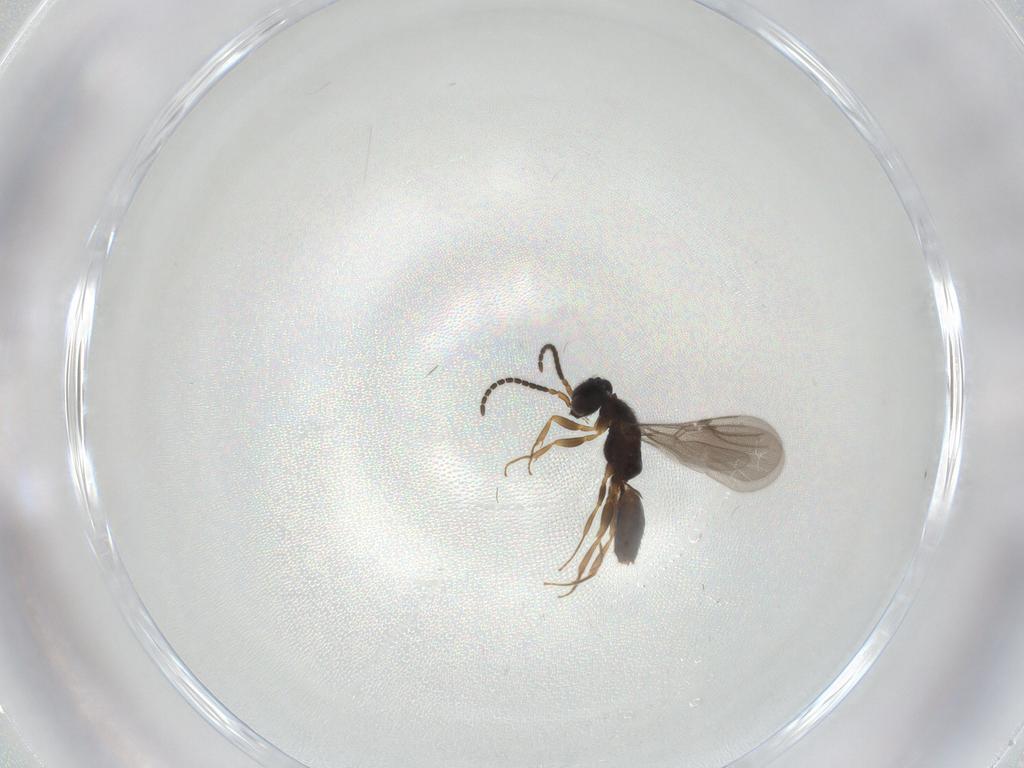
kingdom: Animalia
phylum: Arthropoda
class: Insecta
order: Hymenoptera
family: Bethylidae
